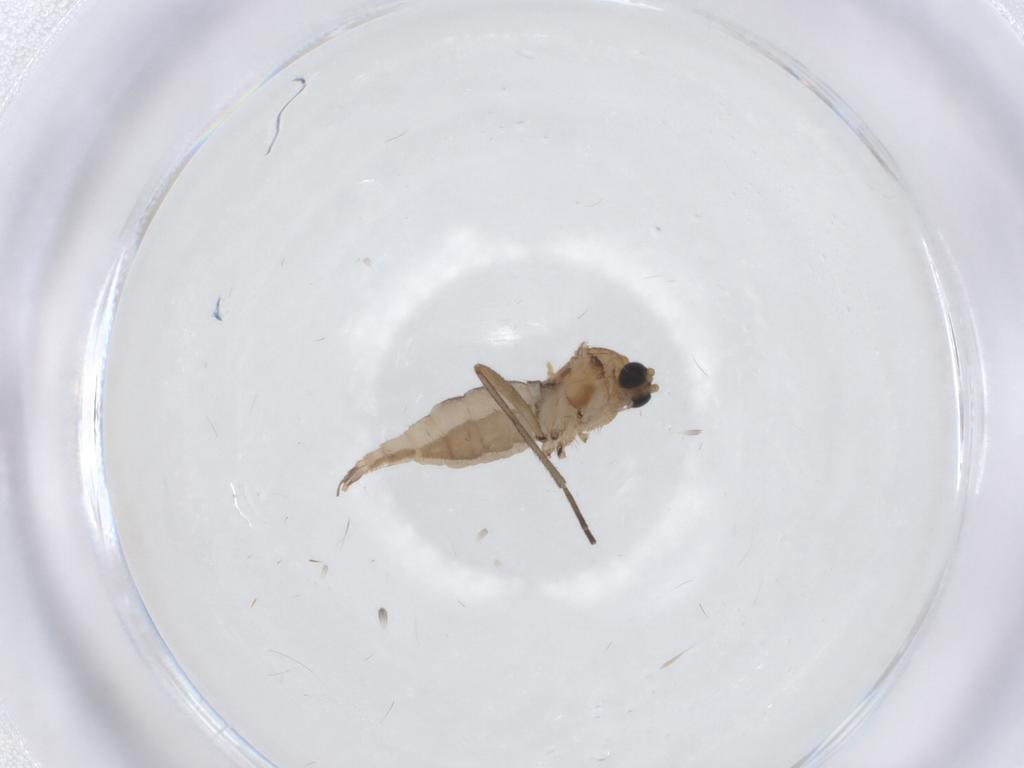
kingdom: Animalia
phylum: Arthropoda
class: Insecta
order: Diptera
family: Sciaridae
